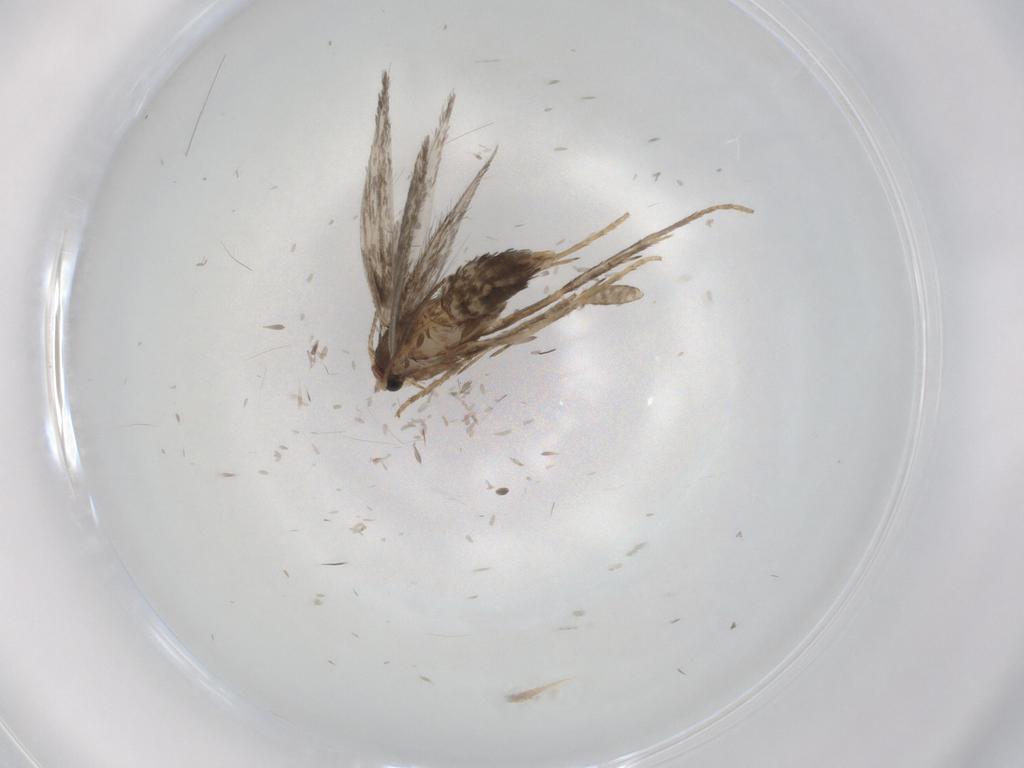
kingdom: Animalia
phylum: Arthropoda
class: Insecta
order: Lepidoptera
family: Nepticulidae
